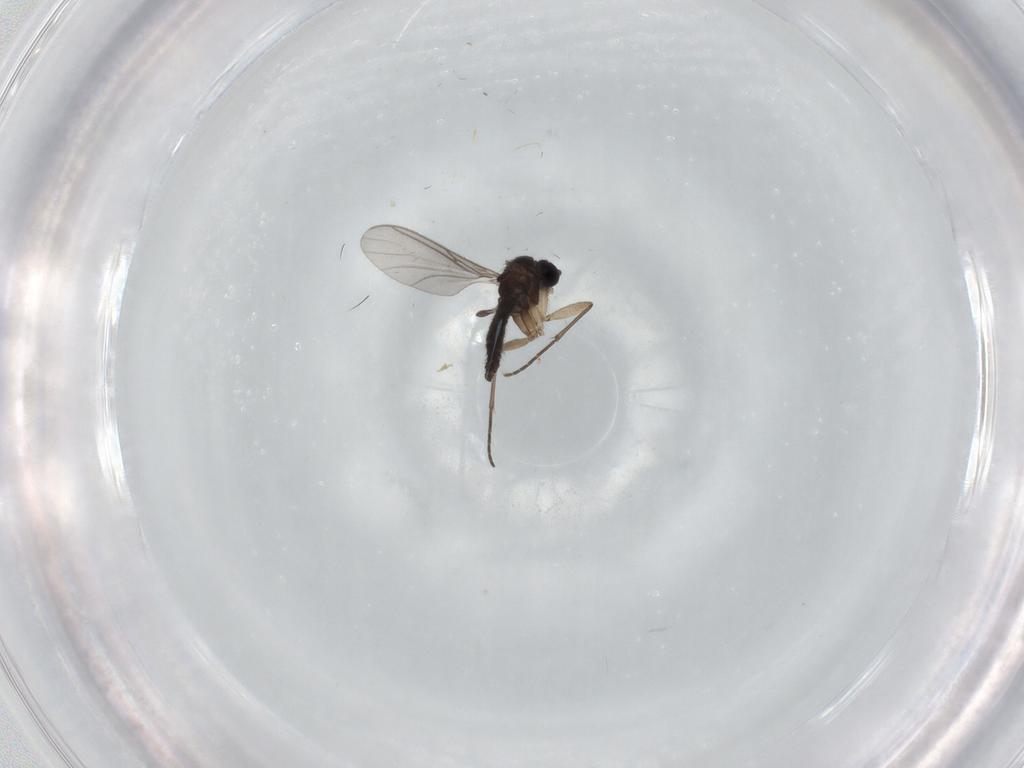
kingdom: Animalia
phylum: Arthropoda
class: Insecta
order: Diptera
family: Sciaridae
